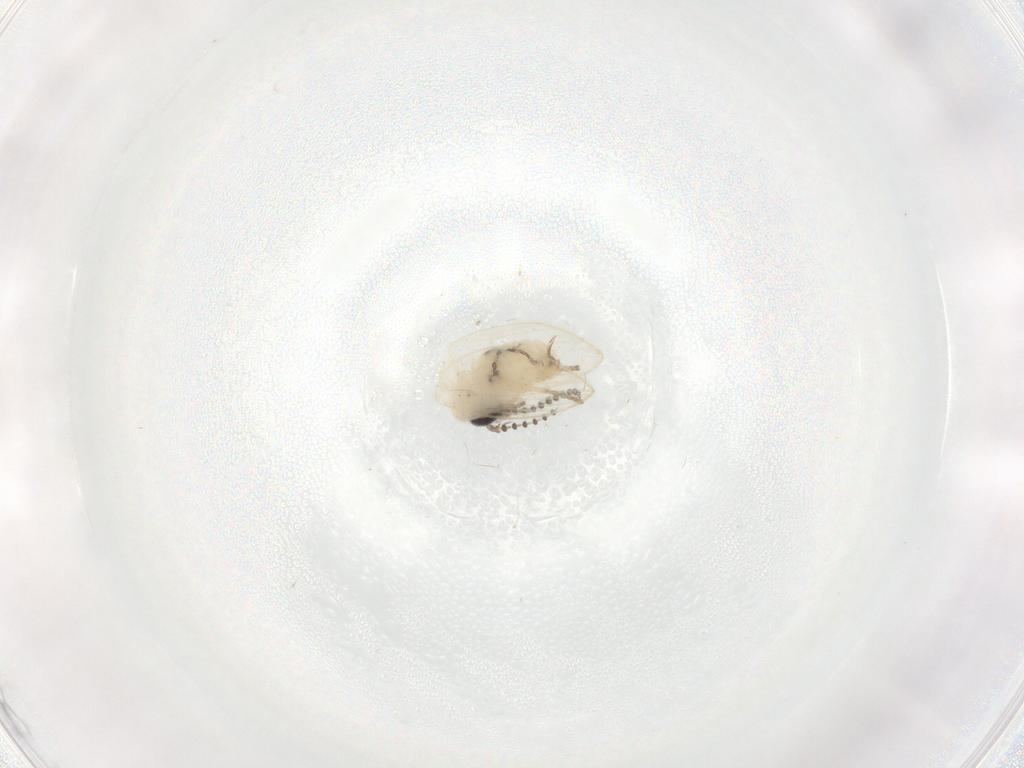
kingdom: Animalia
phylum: Arthropoda
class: Insecta
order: Diptera
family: Psychodidae
